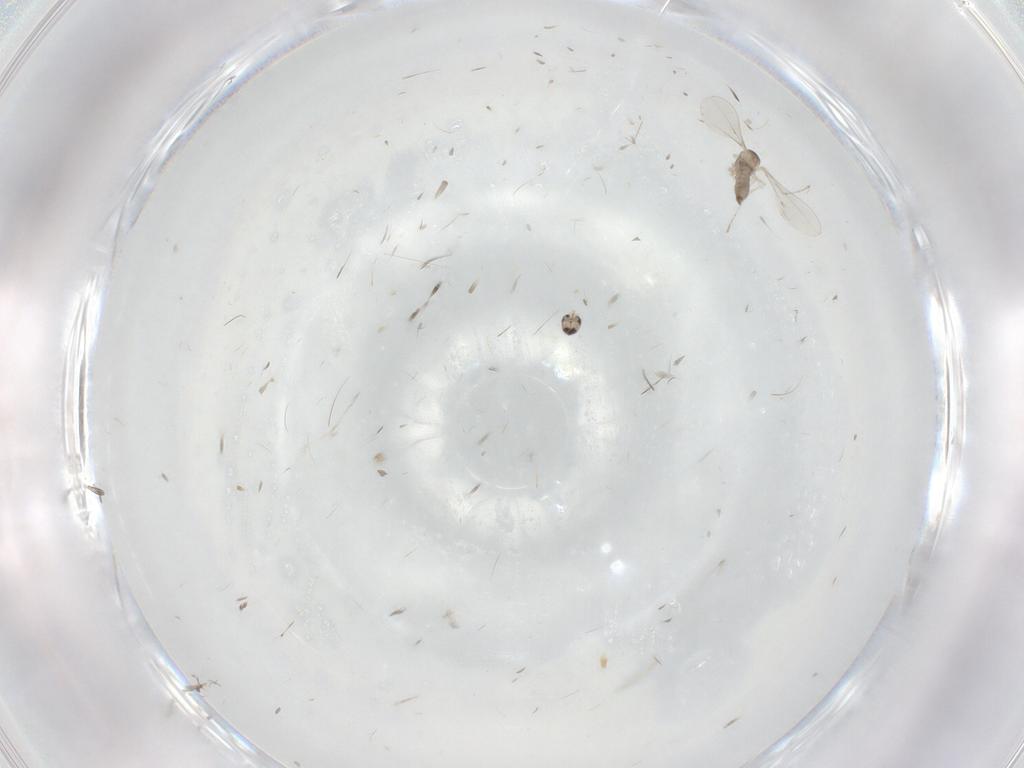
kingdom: Animalia
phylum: Arthropoda
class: Insecta
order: Diptera
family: Cecidomyiidae
